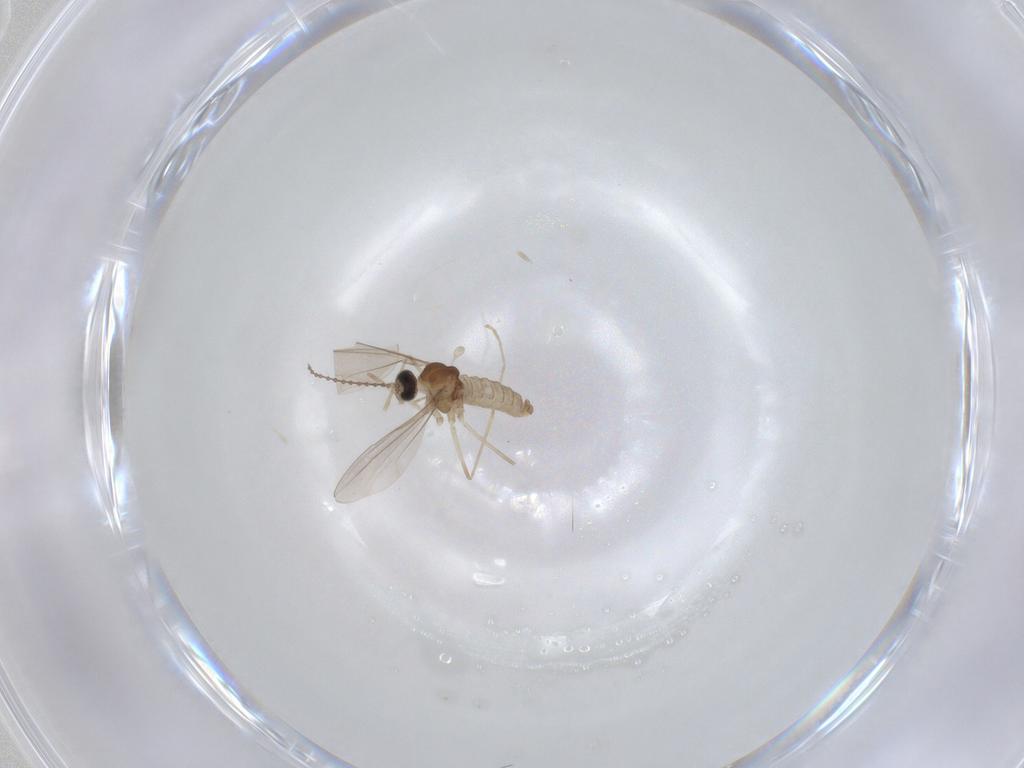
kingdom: Animalia
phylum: Arthropoda
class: Insecta
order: Diptera
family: Cecidomyiidae
